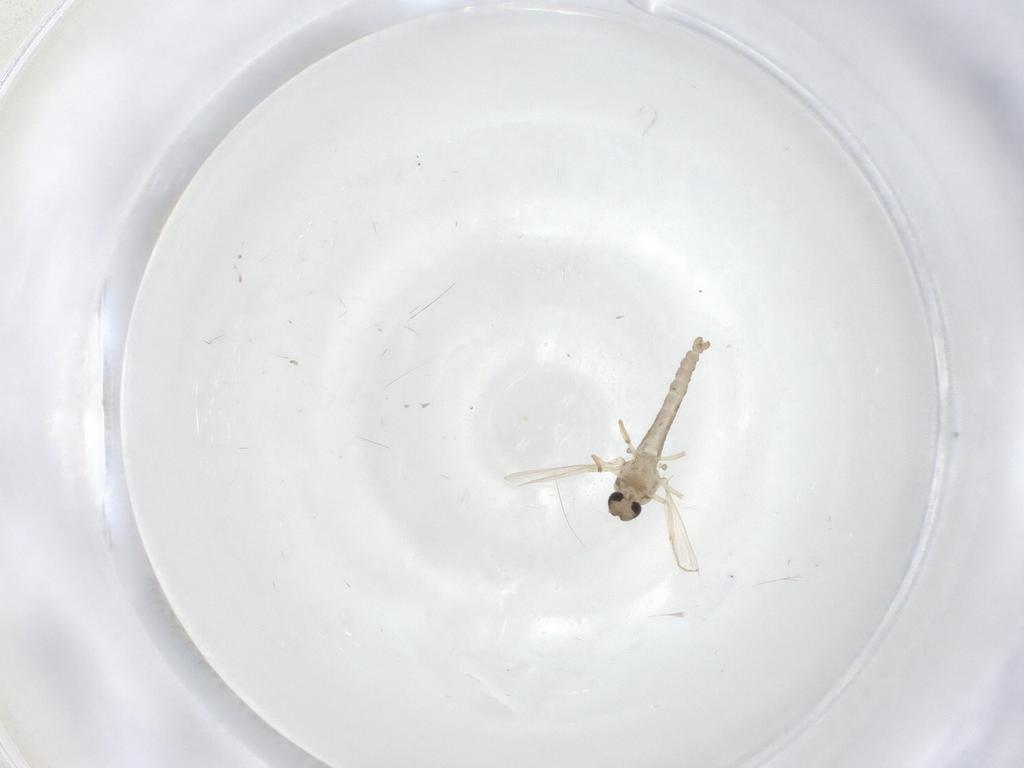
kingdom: Animalia
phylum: Arthropoda
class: Insecta
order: Diptera
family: Ceratopogonidae
